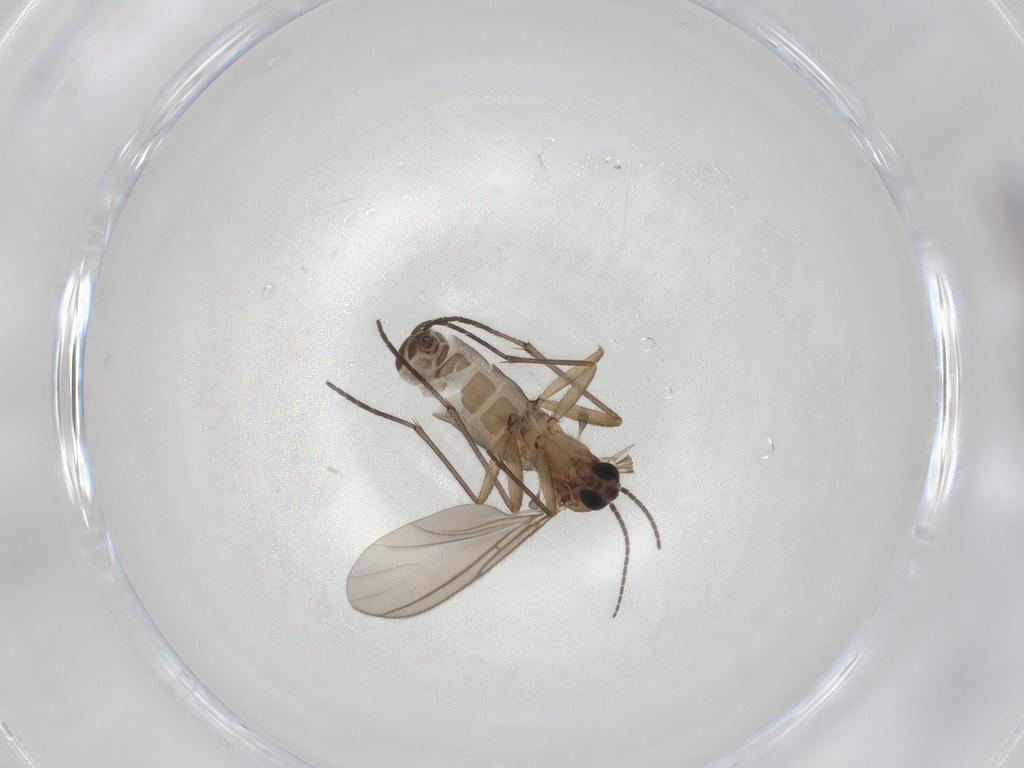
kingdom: Animalia
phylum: Arthropoda
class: Insecta
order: Diptera
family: Sciaridae
